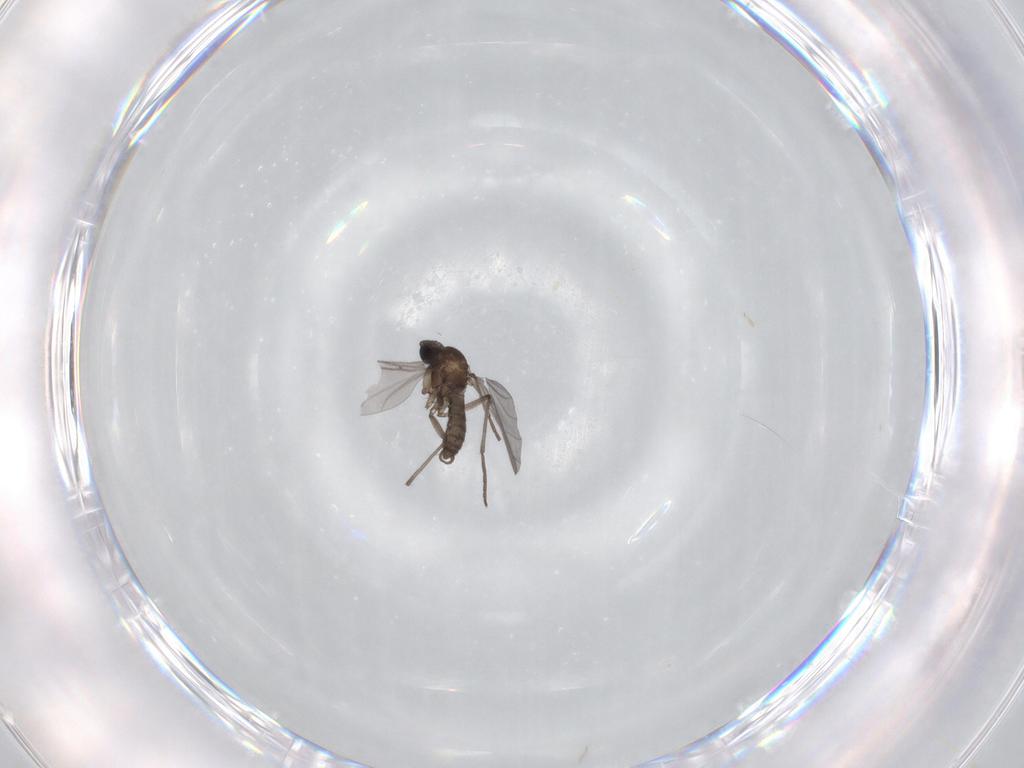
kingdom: Animalia
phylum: Arthropoda
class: Insecta
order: Diptera
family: Sciaridae
